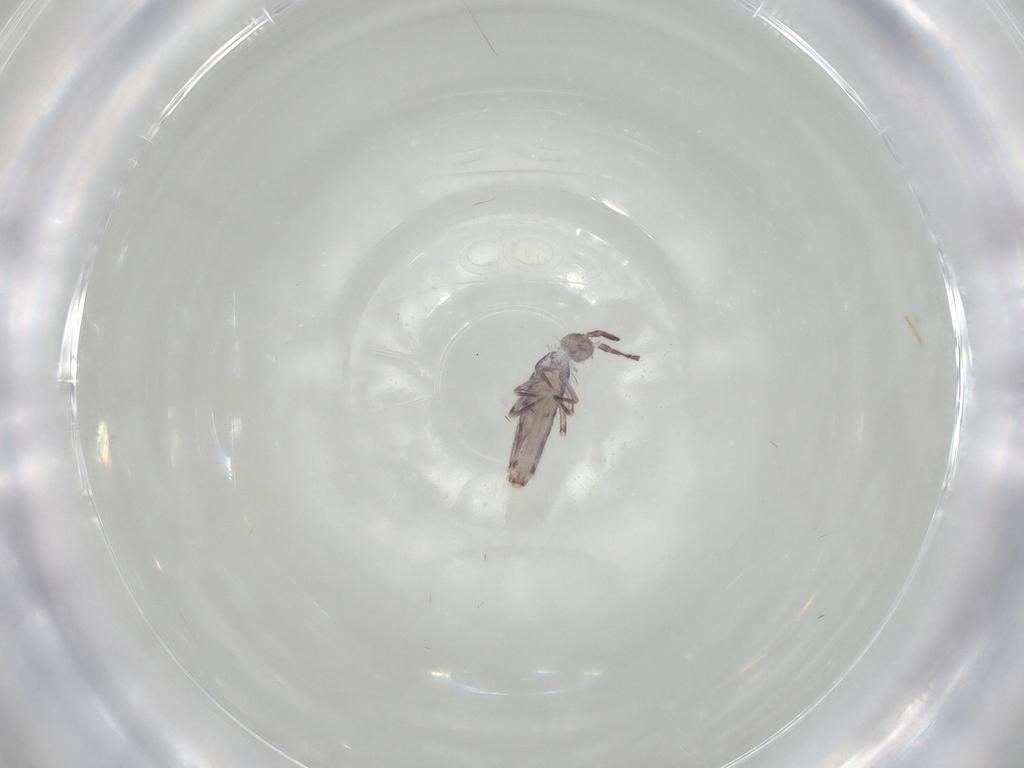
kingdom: Animalia
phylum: Arthropoda
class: Collembola
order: Entomobryomorpha
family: Entomobryidae
